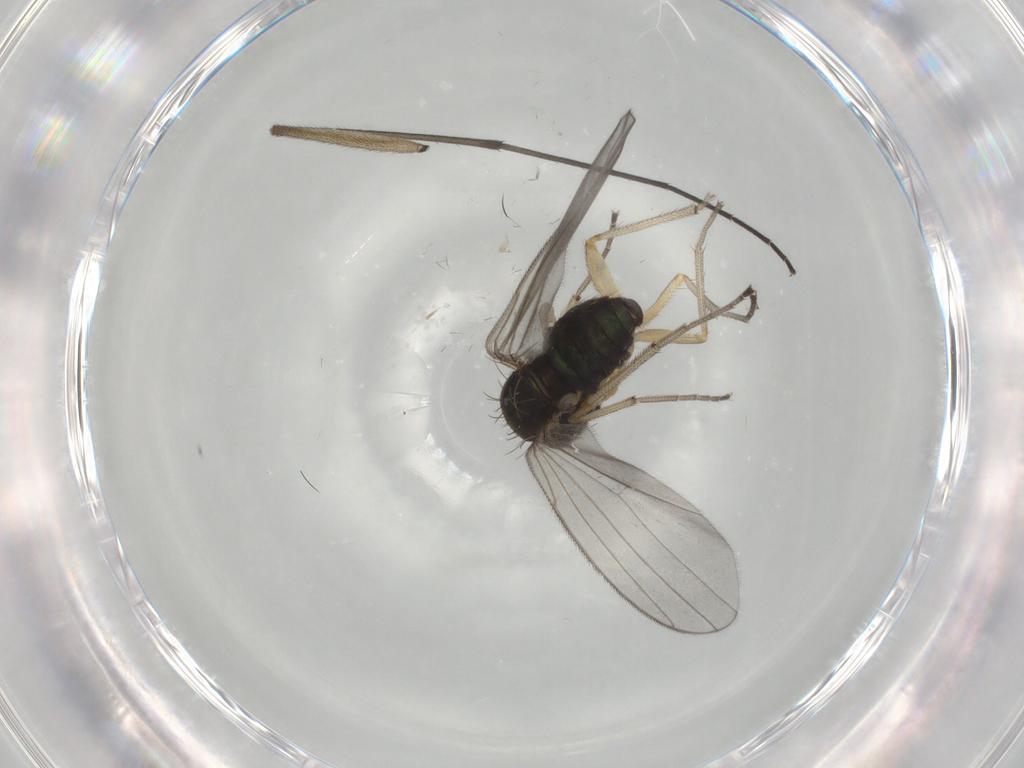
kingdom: Animalia
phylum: Arthropoda
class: Insecta
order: Diptera
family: Dolichopodidae
